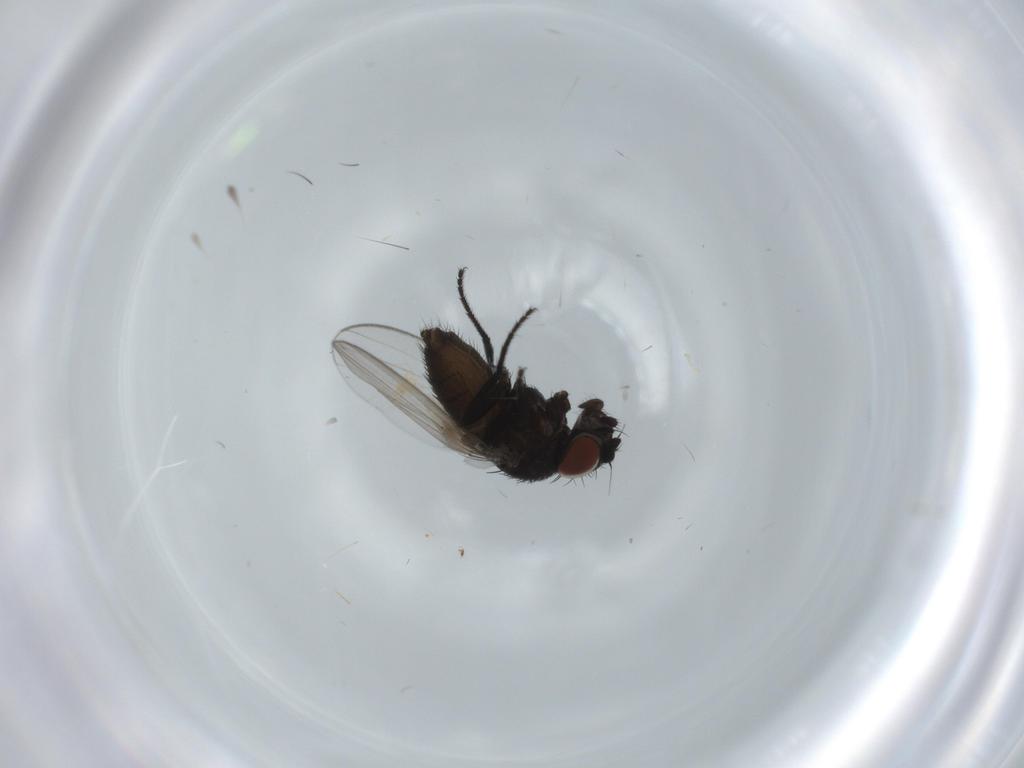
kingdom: Animalia
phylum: Arthropoda
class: Insecta
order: Diptera
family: Milichiidae
